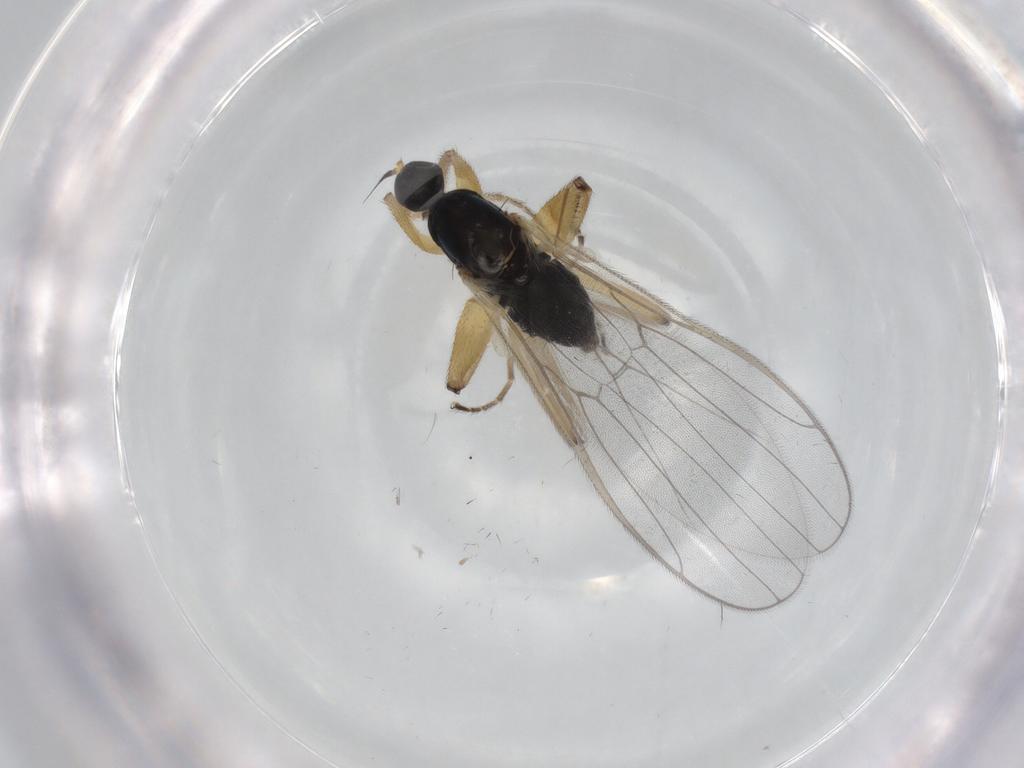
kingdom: Animalia
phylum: Arthropoda
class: Insecta
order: Diptera
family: Hybotidae
